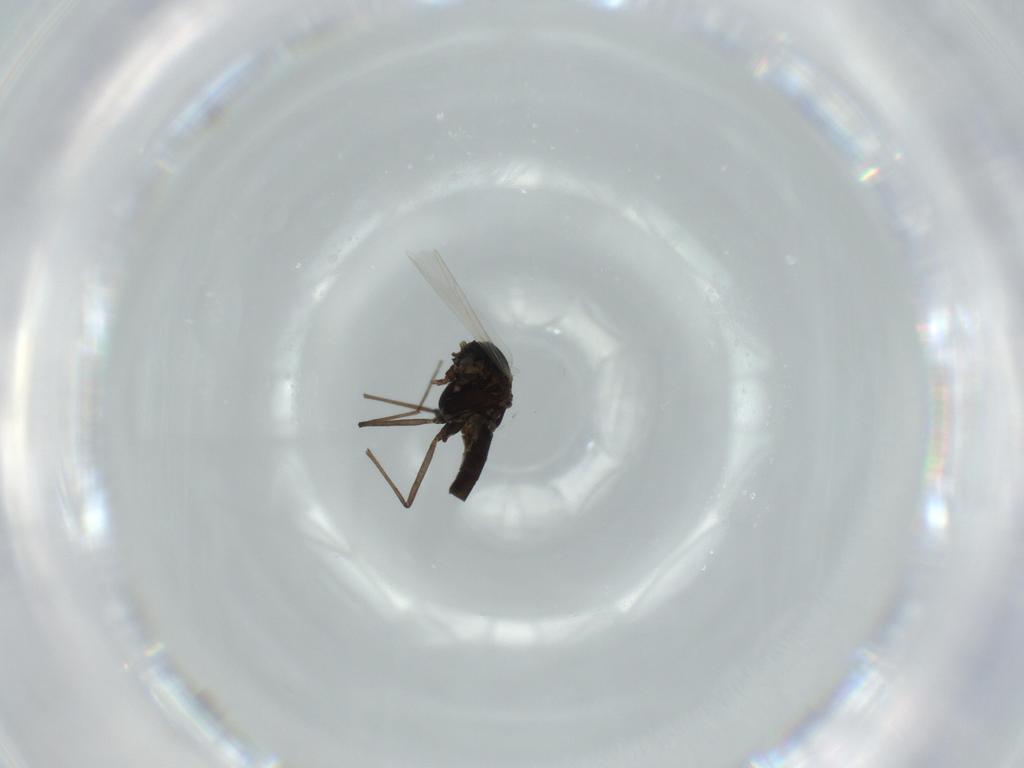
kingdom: Animalia
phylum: Arthropoda
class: Insecta
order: Diptera
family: Chironomidae
